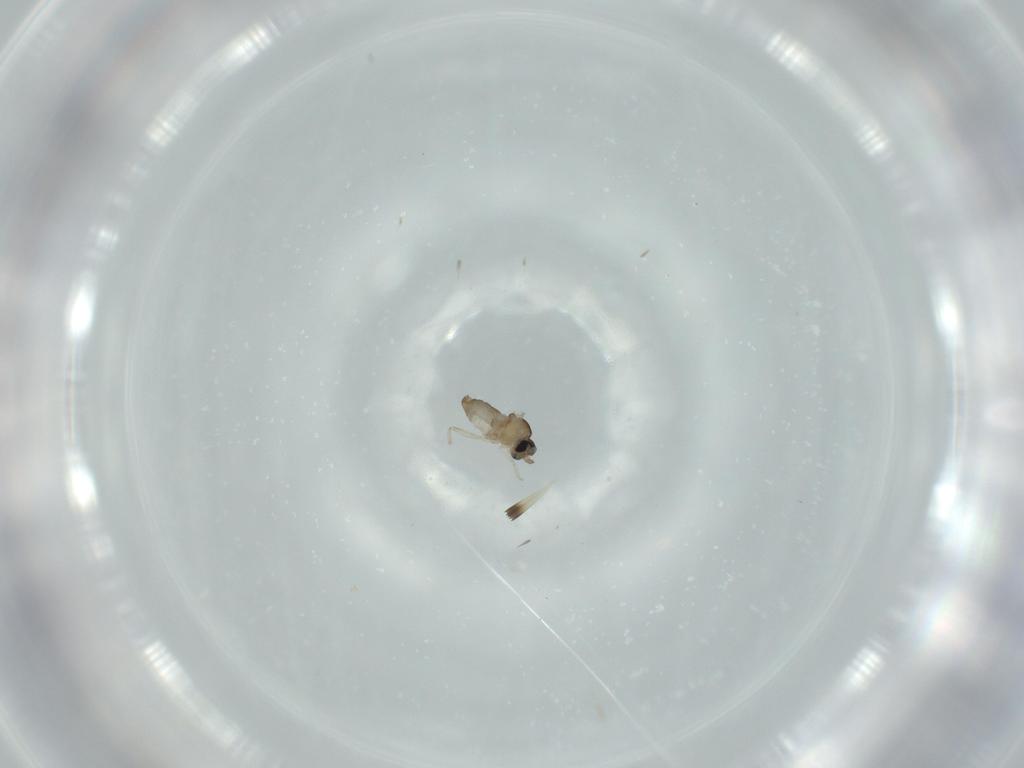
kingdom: Animalia
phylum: Arthropoda
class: Insecta
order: Diptera
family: Cecidomyiidae
